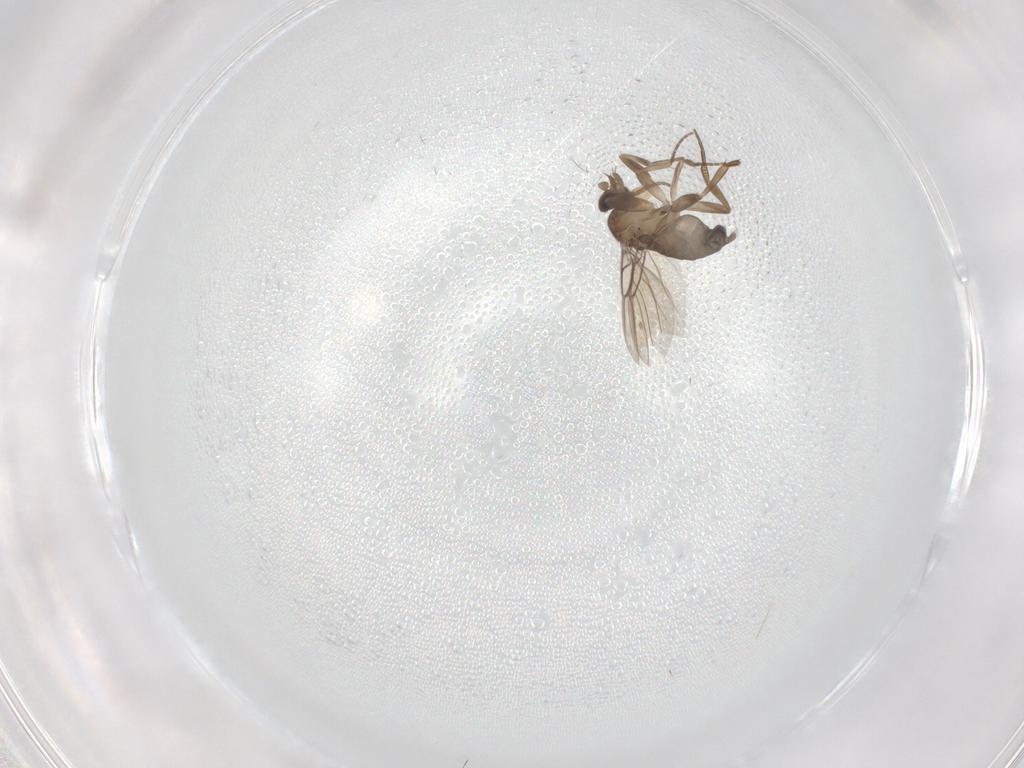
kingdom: Animalia
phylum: Arthropoda
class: Insecta
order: Diptera
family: Phoridae
